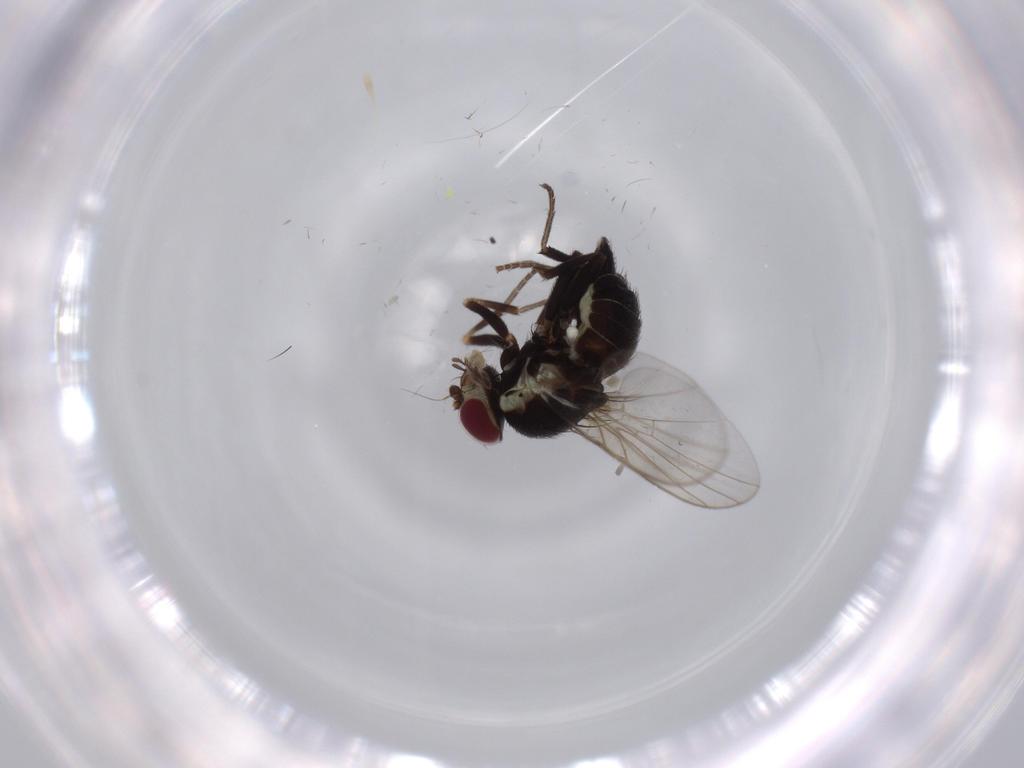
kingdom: Animalia
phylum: Arthropoda
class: Insecta
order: Diptera
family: Agromyzidae
